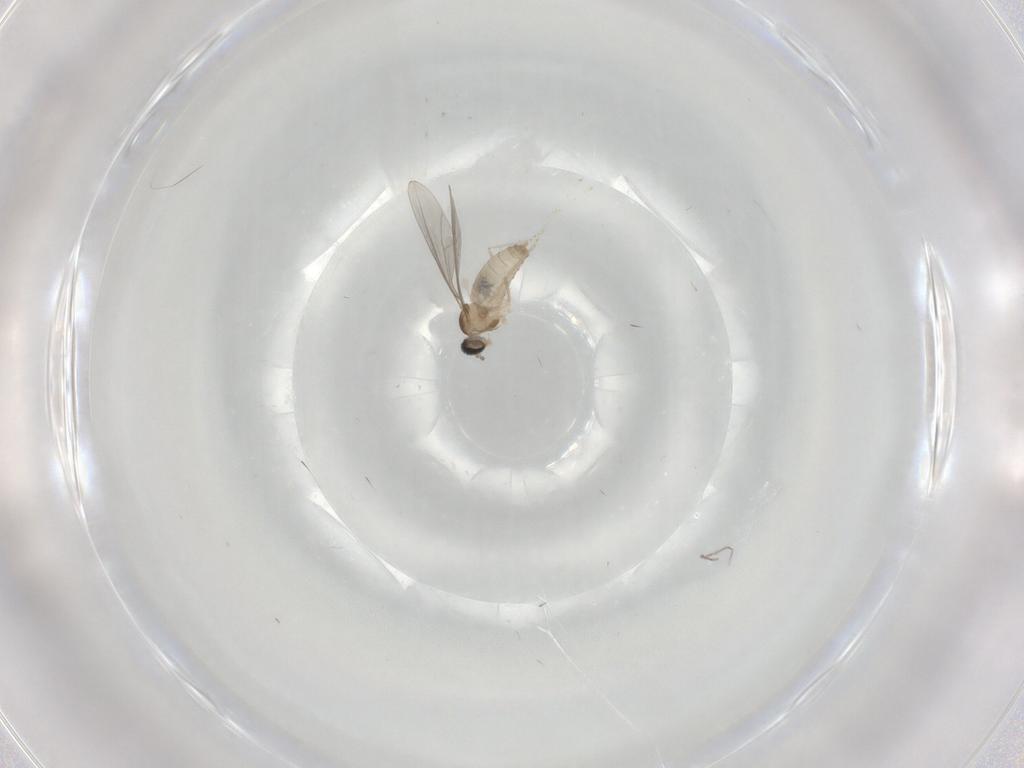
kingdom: Animalia
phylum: Arthropoda
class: Insecta
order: Diptera
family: Cecidomyiidae
